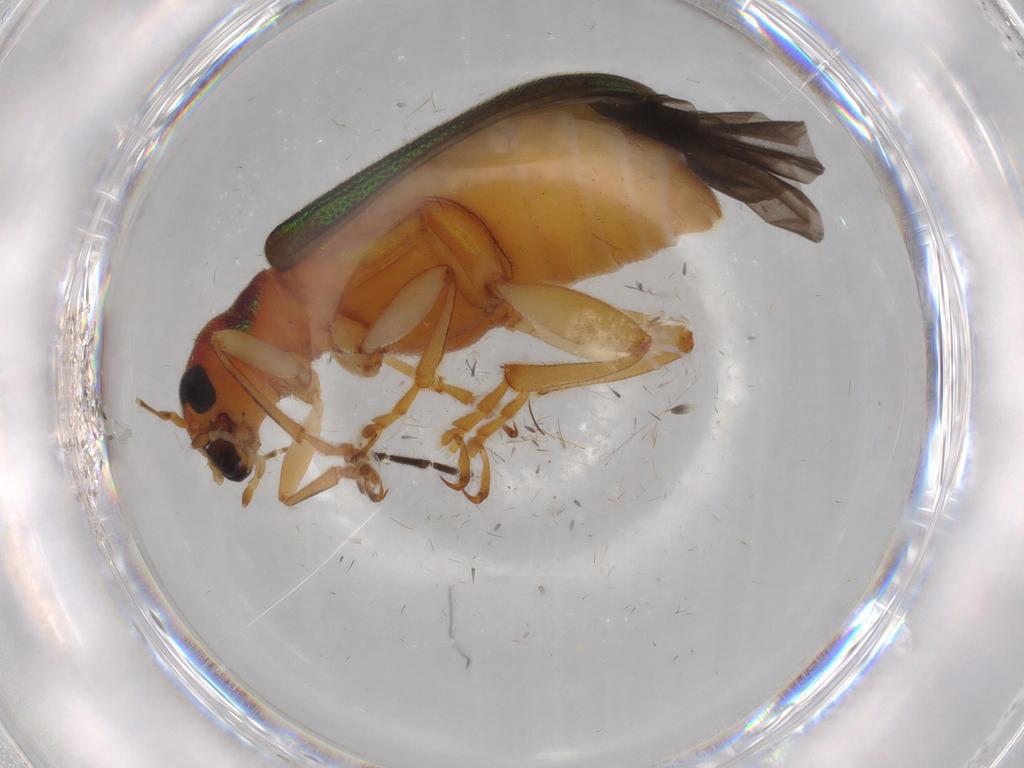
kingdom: Animalia
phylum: Arthropoda
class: Insecta
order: Coleoptera
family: Chrysomelidae
